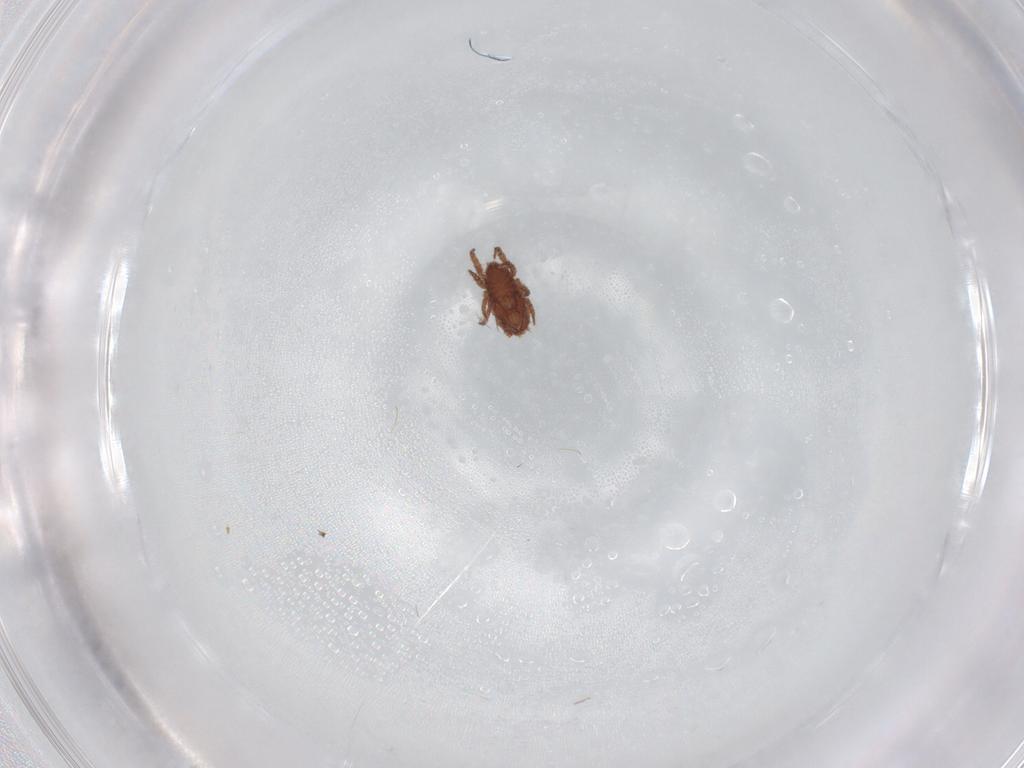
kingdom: Animalia
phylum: Arthropoda
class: Arachnida
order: Sarcoptiformes
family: Crotoniidae
